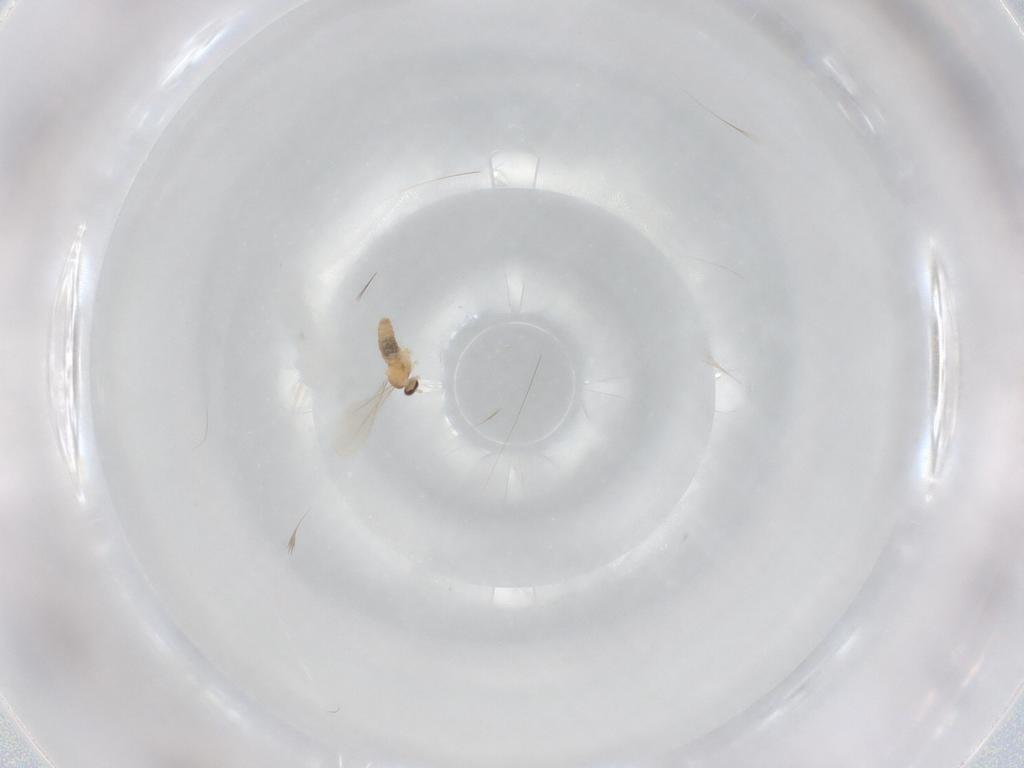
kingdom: Animalia
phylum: Arthropoda
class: Insecta
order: Diptera
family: Cecidomyiidae
